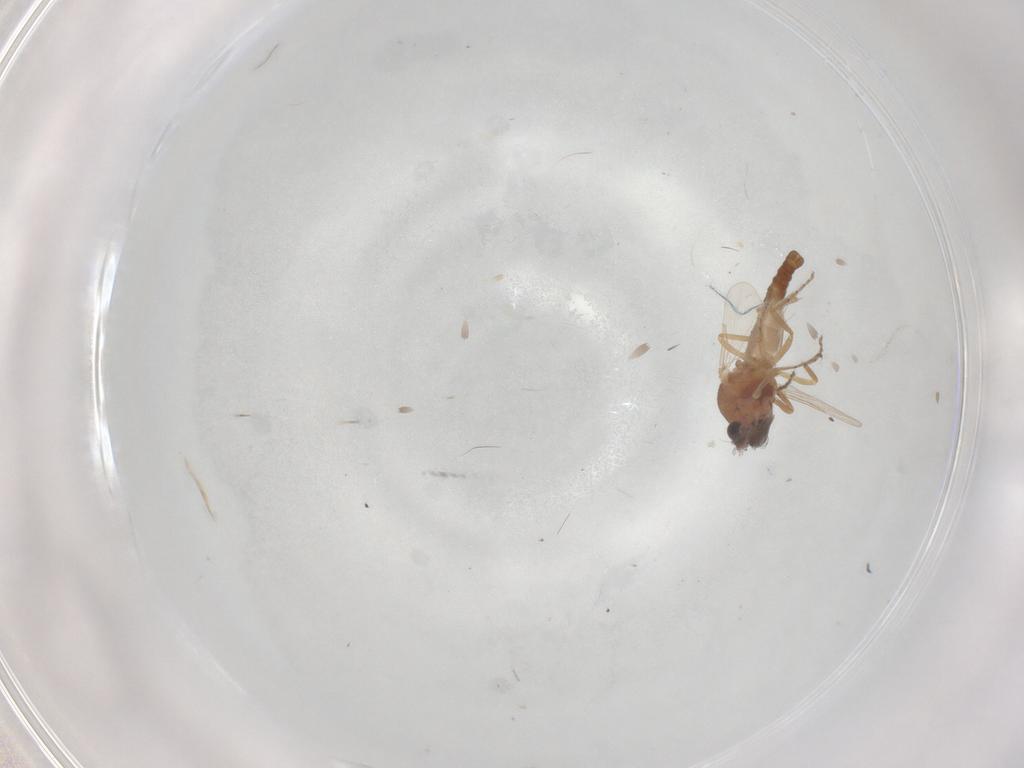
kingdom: Animalia
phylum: Arthropoda
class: Insecta
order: Diptera
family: Ceratopogonidae
